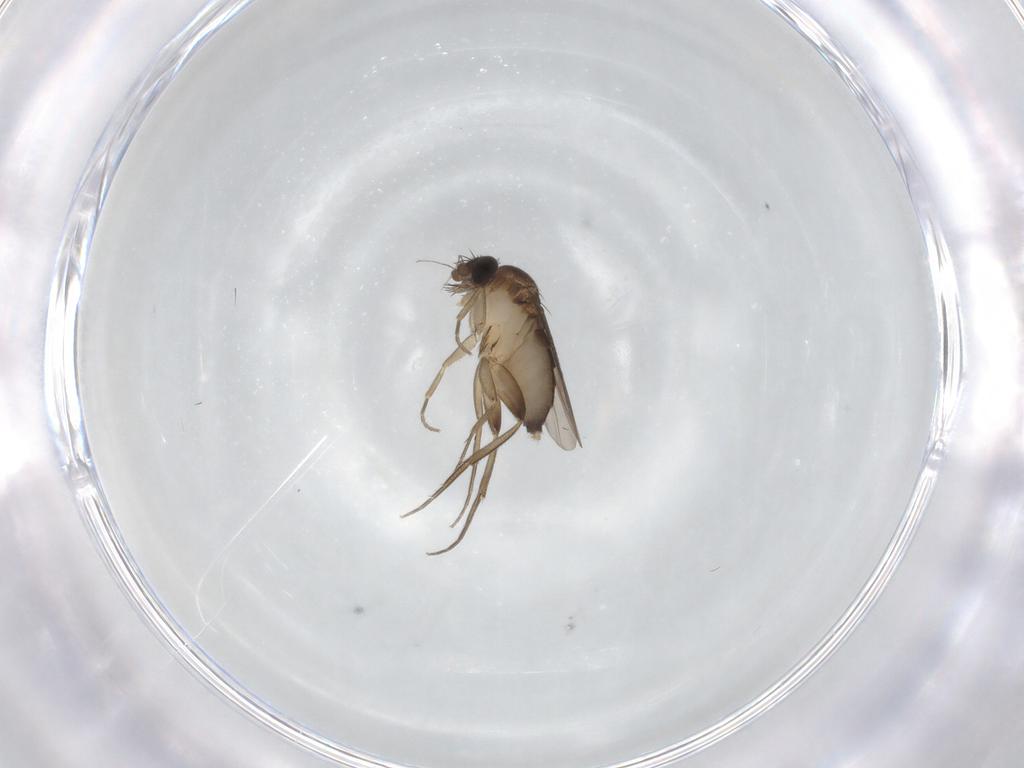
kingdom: Animalia
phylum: Arthropoda
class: Insecta
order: Diptera
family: Phoridae
